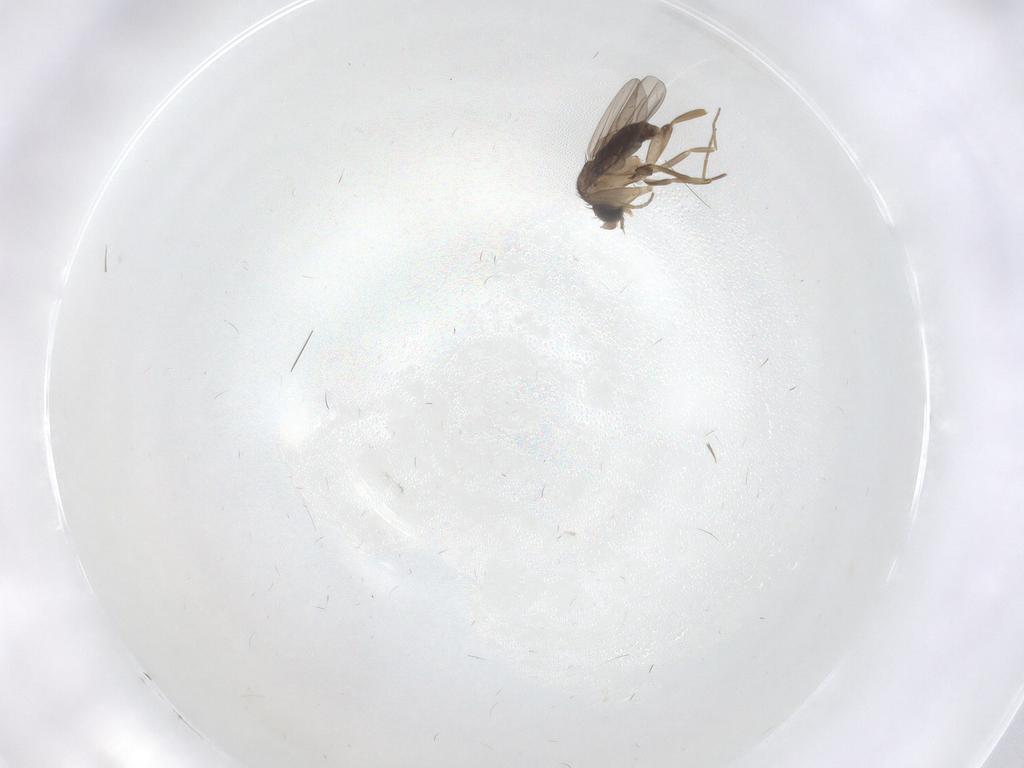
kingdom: Animalia
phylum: Arthropoda
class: Insecta
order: Diptera
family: Phoridae
